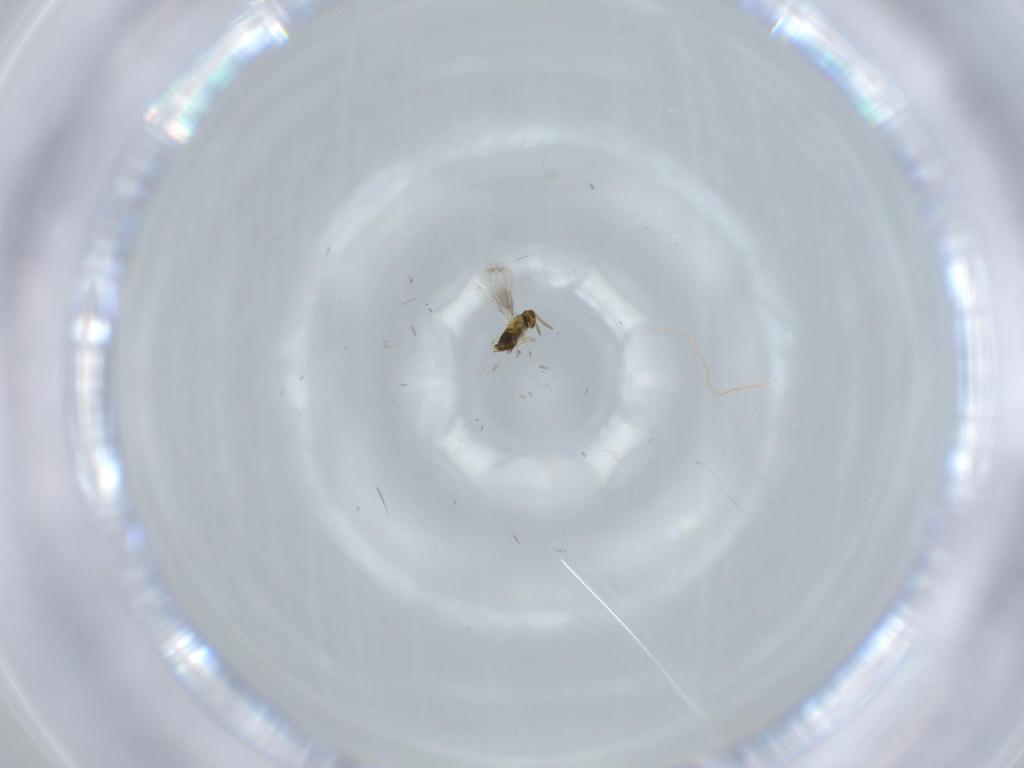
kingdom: Animalia
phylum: Arthropoda
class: Insecta
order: Hymenoptera
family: Aphelinidae
